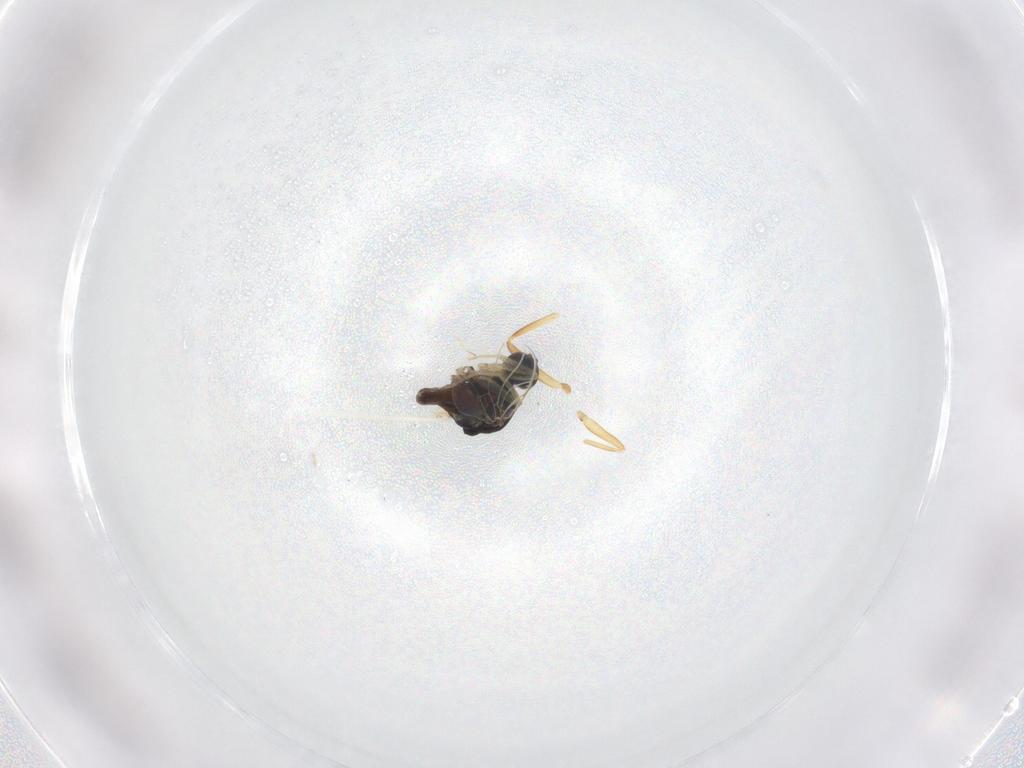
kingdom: Animalia
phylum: Arthropoda
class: Insecta
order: Diptera
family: Hybotidae
